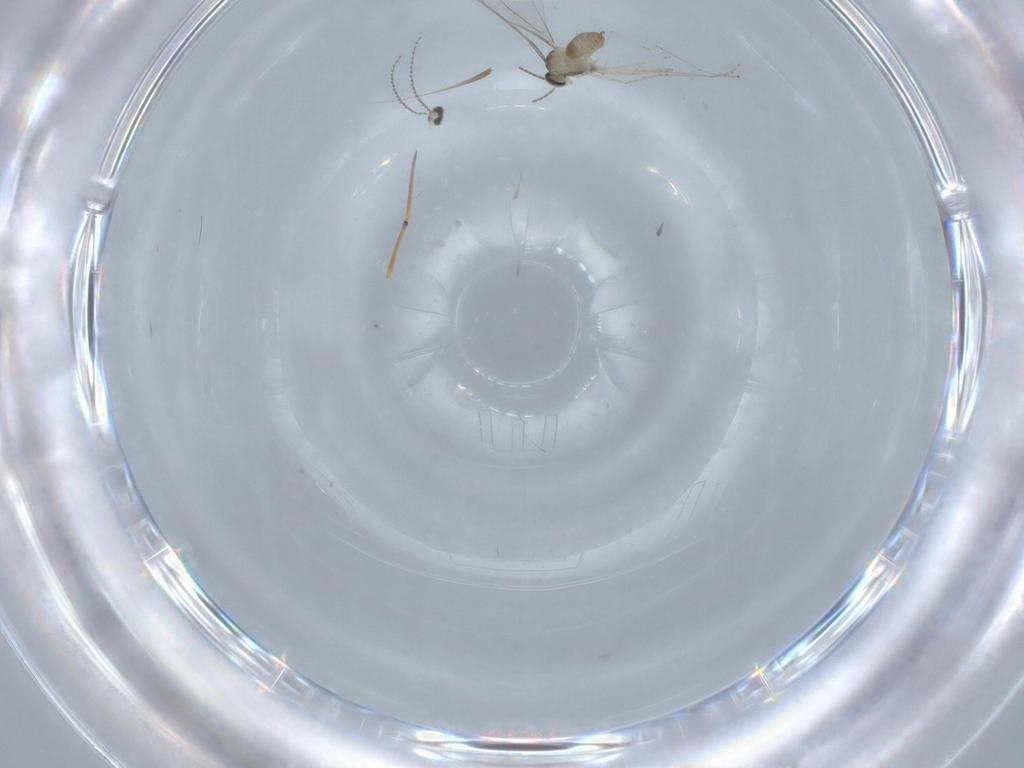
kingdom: Animalia
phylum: Arthropoda
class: Insecta
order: Diptera
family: Cecidomyiidae
